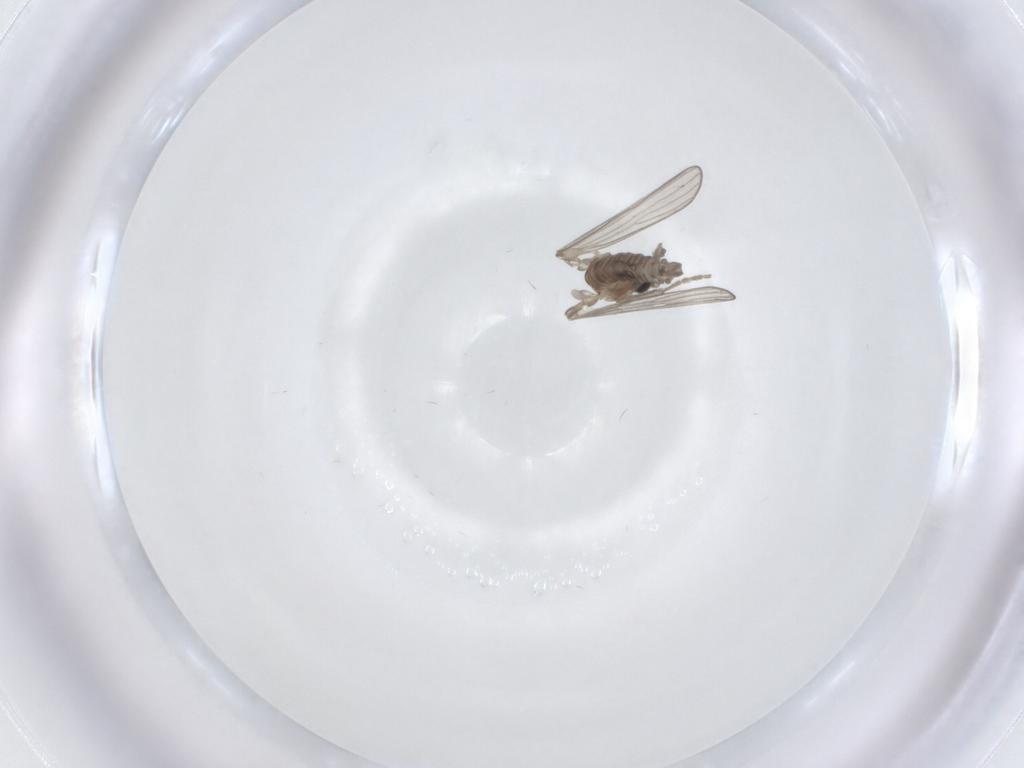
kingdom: Animalia
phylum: Arthropoda
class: Insecta
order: Diptera
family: Psychodidae
